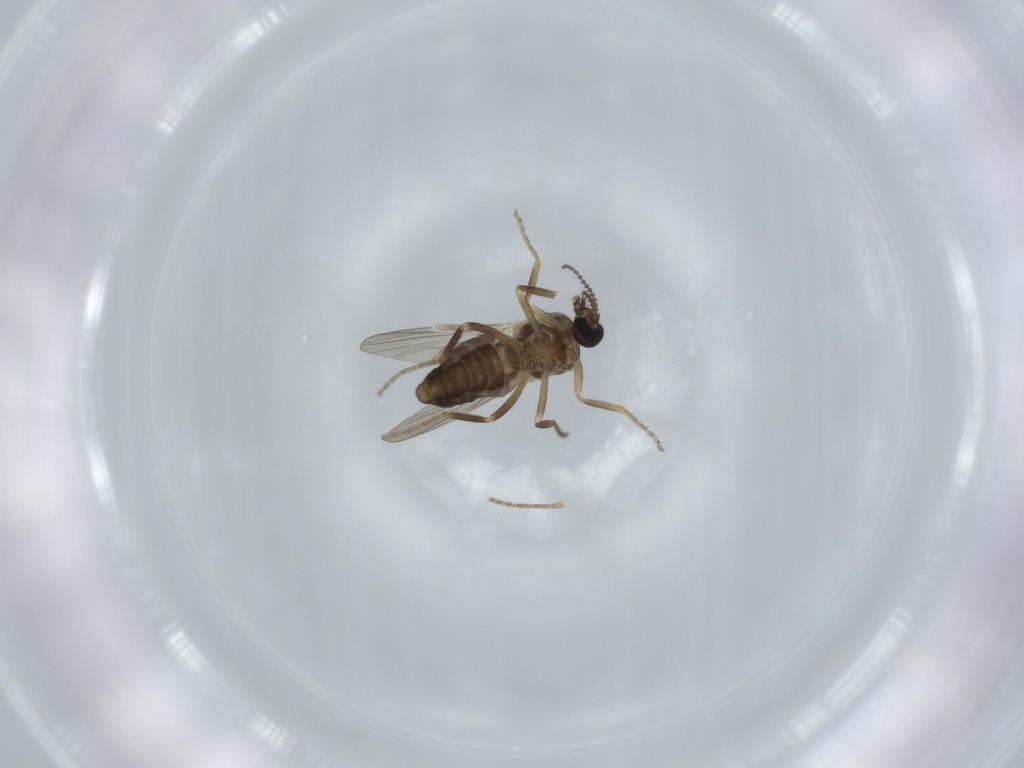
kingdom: Animalia
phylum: Arthropoda
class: Insecta
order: Diptera
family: Ceratopogonidae
